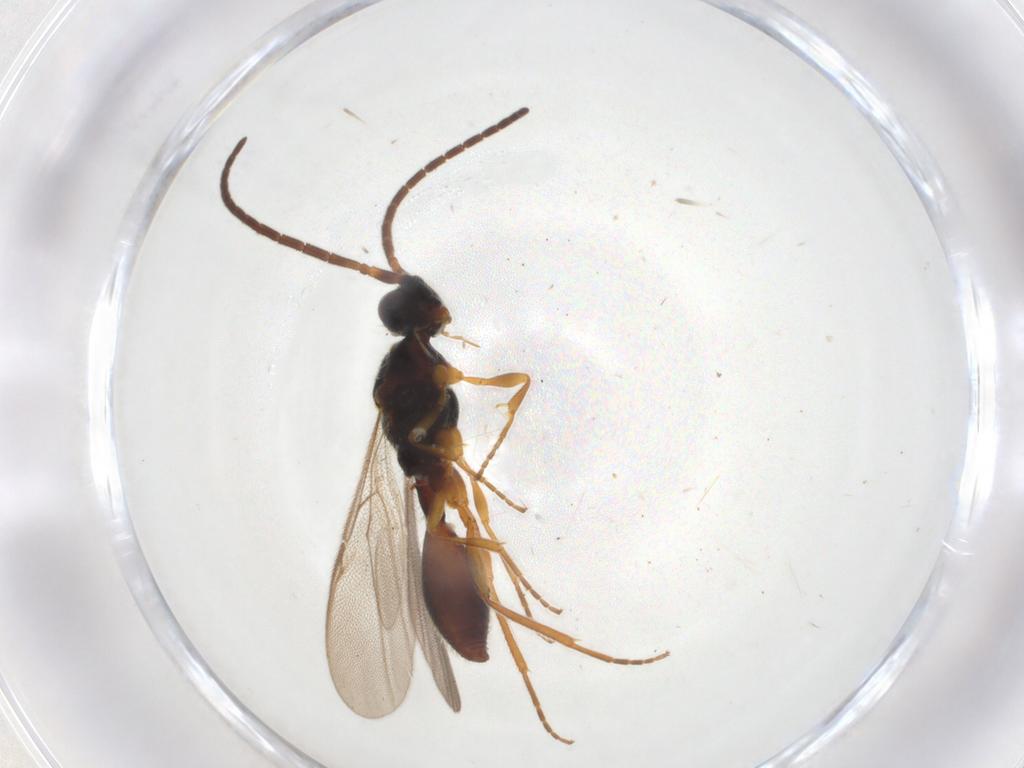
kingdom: Animalia
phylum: Arthropoda
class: Insecta
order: Hymenoptera
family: Diapriidae
